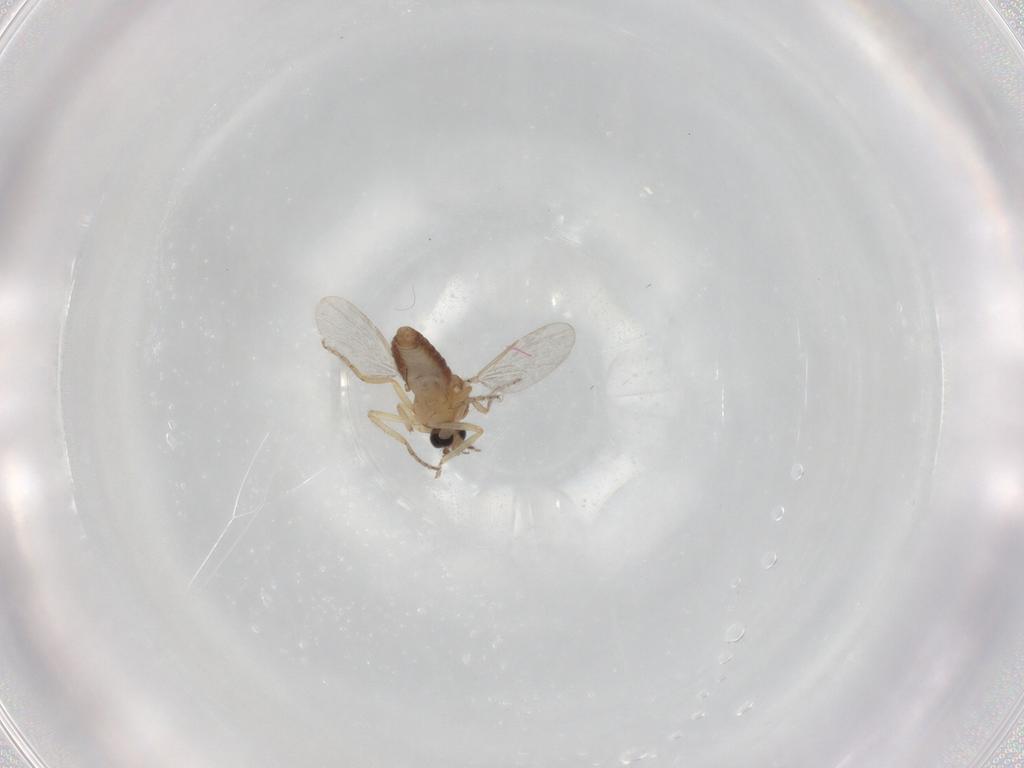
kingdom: Animalia
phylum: Arthropoda
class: Insecta
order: Diptera
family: Ceratopogonidae
